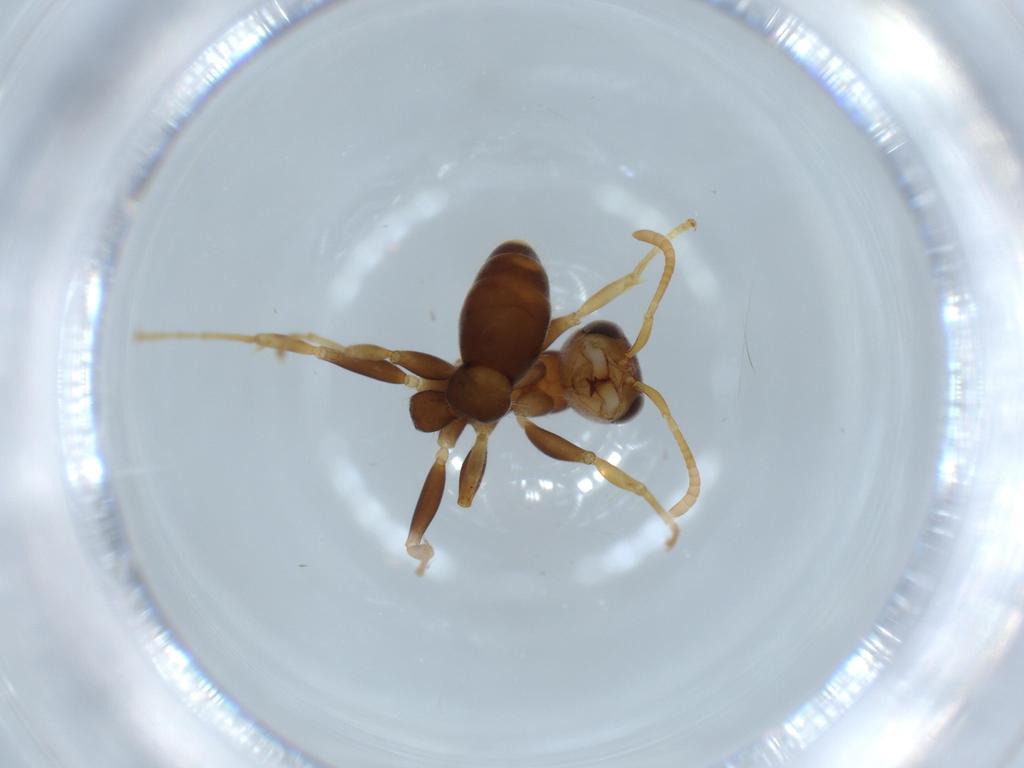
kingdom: Animalia
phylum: Arthropoda
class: Insecta
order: Hymenoptera
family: Formicidae
